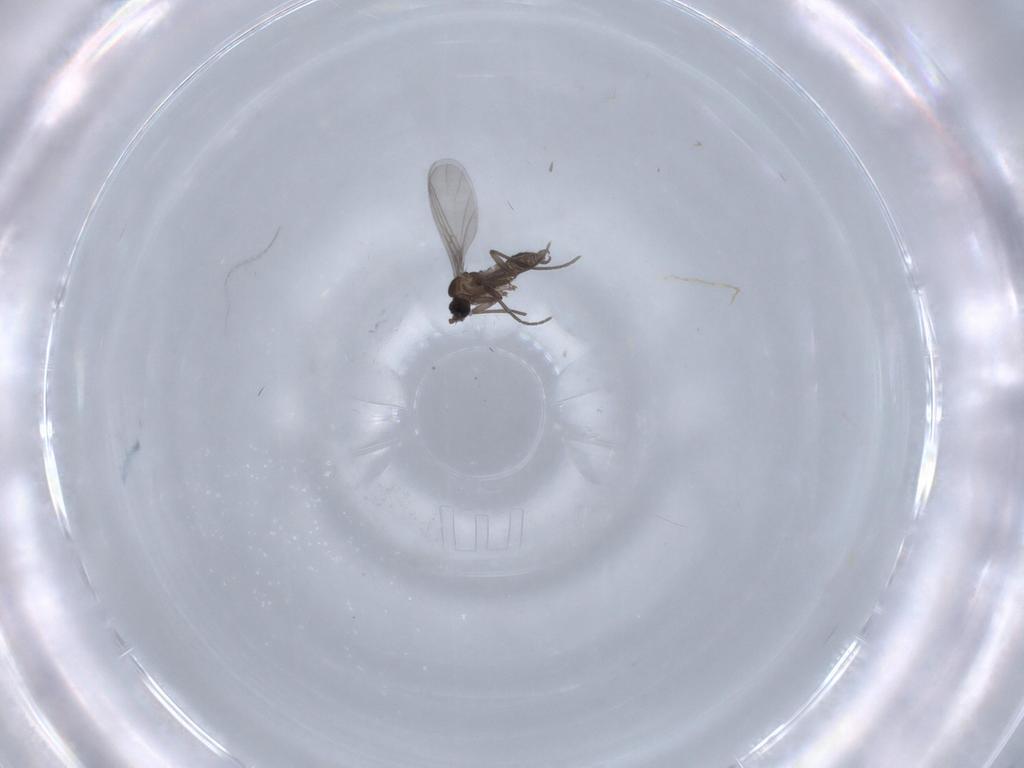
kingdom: Animalia
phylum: Arthropoda
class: Insecta
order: Diptera
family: Sciaridae
